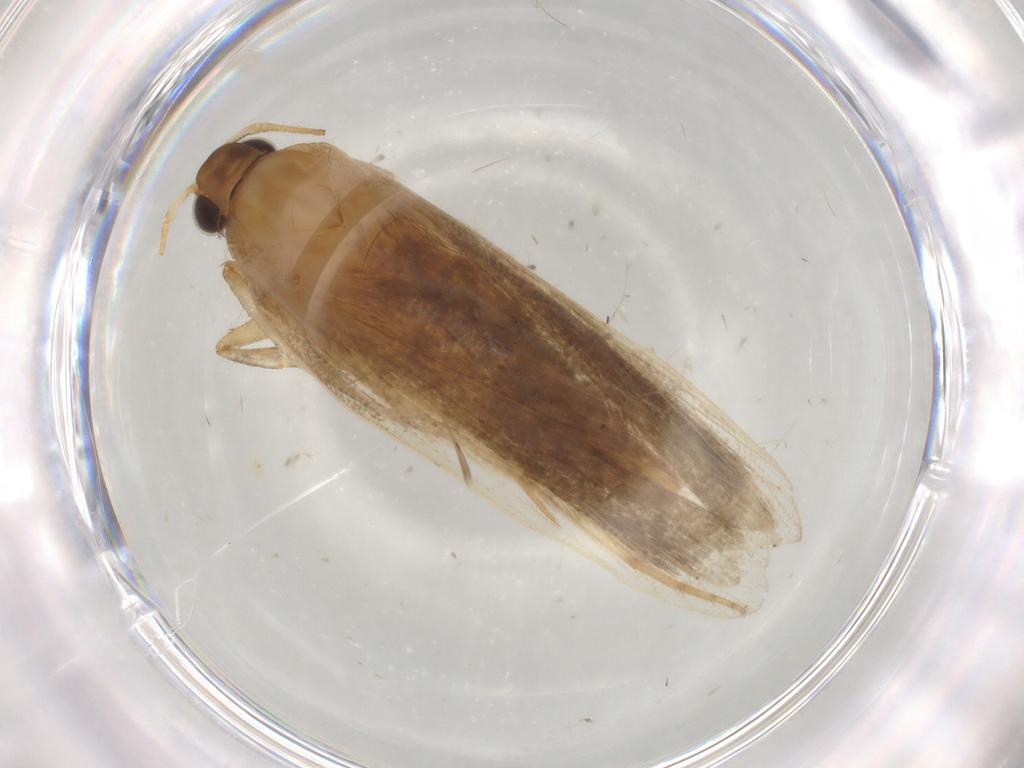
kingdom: Animalia
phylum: Arthropoda
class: Insecta
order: Lepidoptera
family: Gelechiidae
